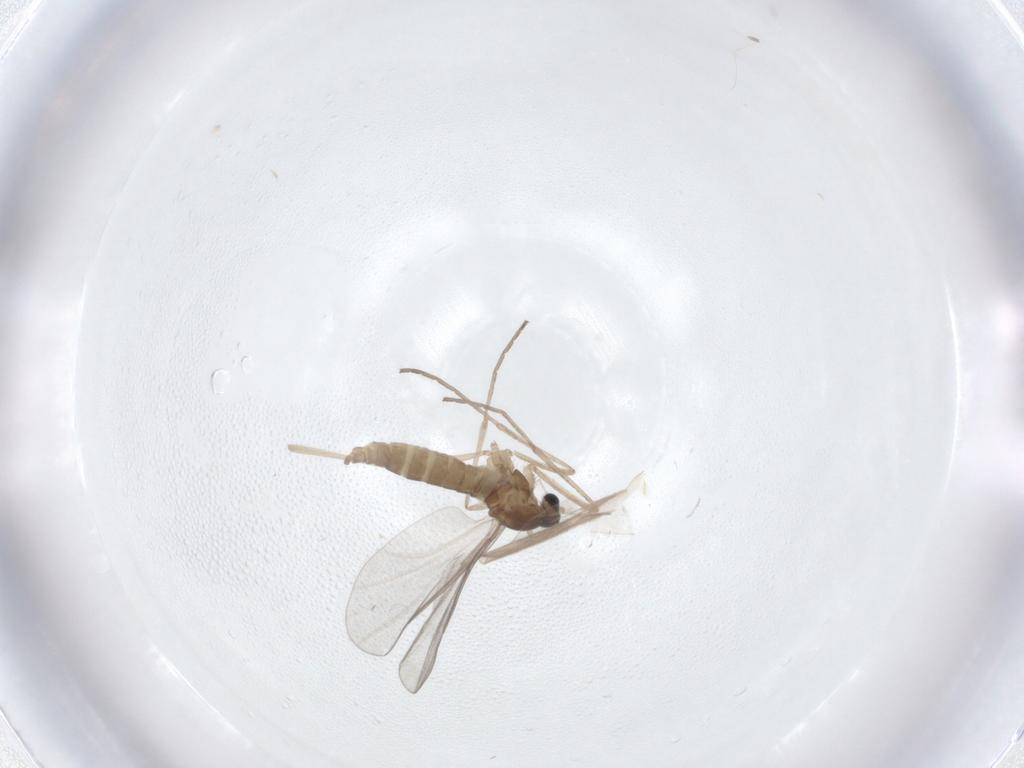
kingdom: Animalia
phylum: Arthropoda
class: Insecta
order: Diptera
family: Cecidomyiidae
